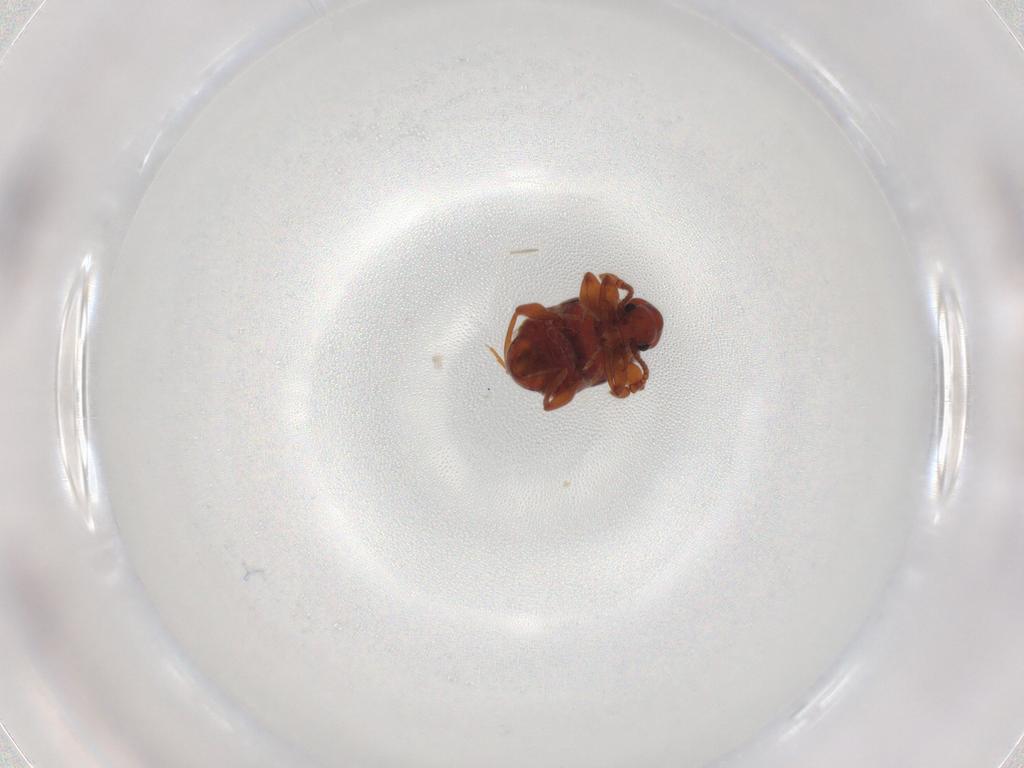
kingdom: Animalia
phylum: Arthropoda
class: Insecta
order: Coleoptera
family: Staphylinidae
